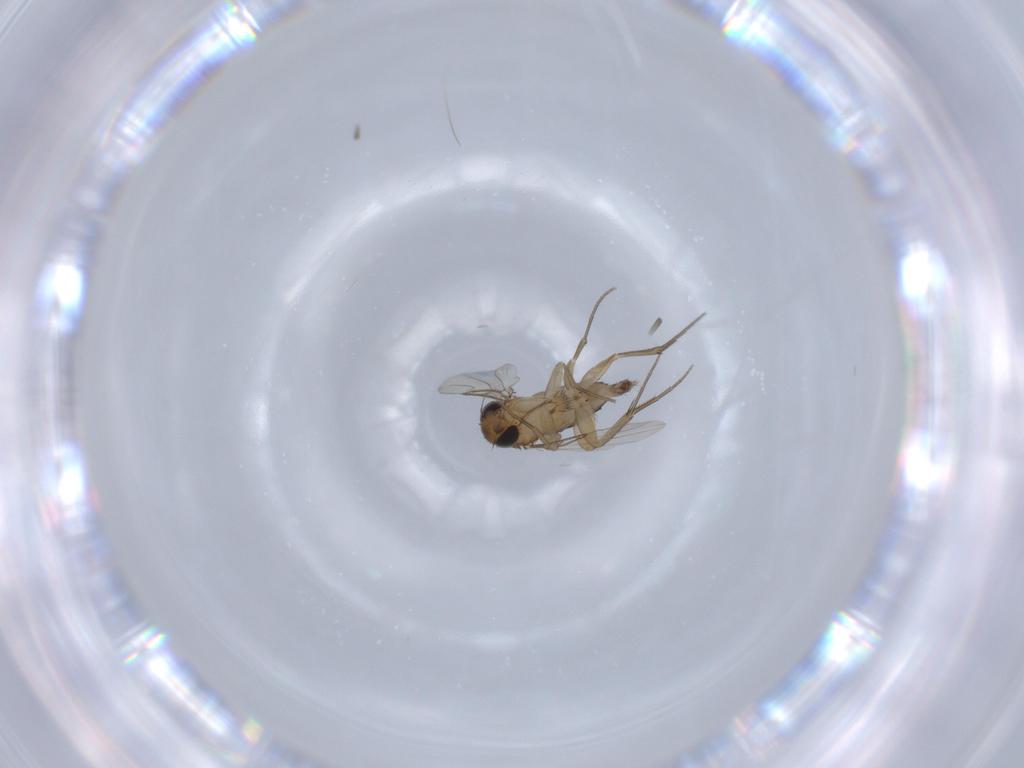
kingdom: Animalia
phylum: Arthropoda
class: Insecta
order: Diptera
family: Phoridae
